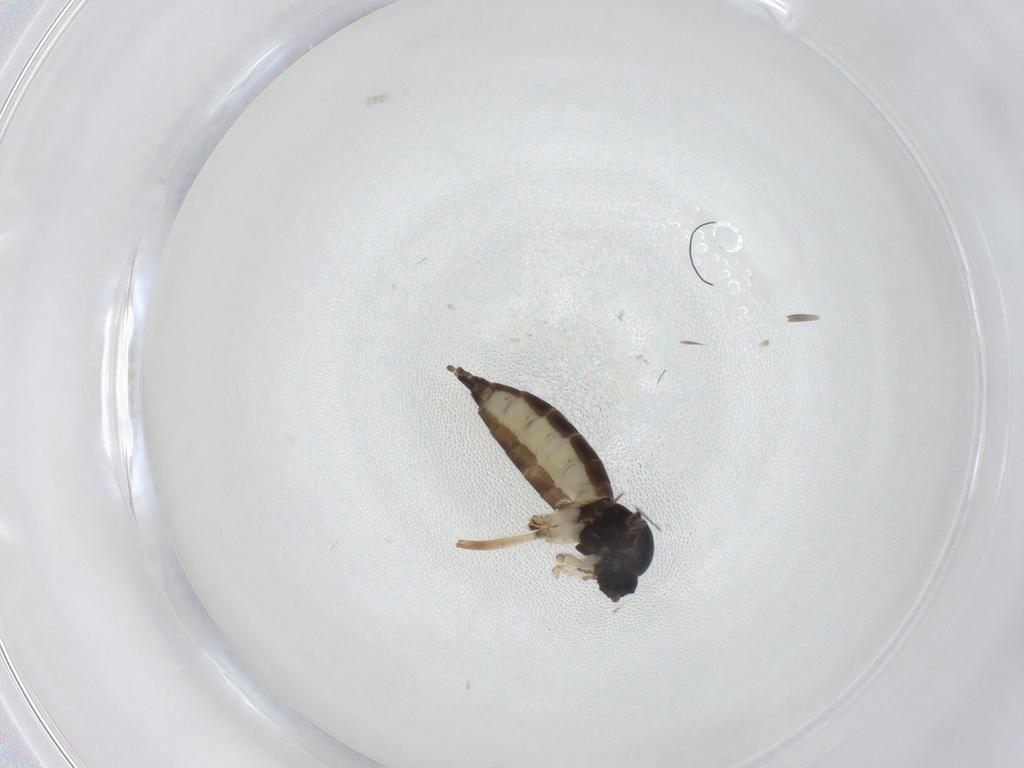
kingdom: Animalia
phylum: Arthropoda
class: Insecta
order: Diptera
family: Sciaridae
